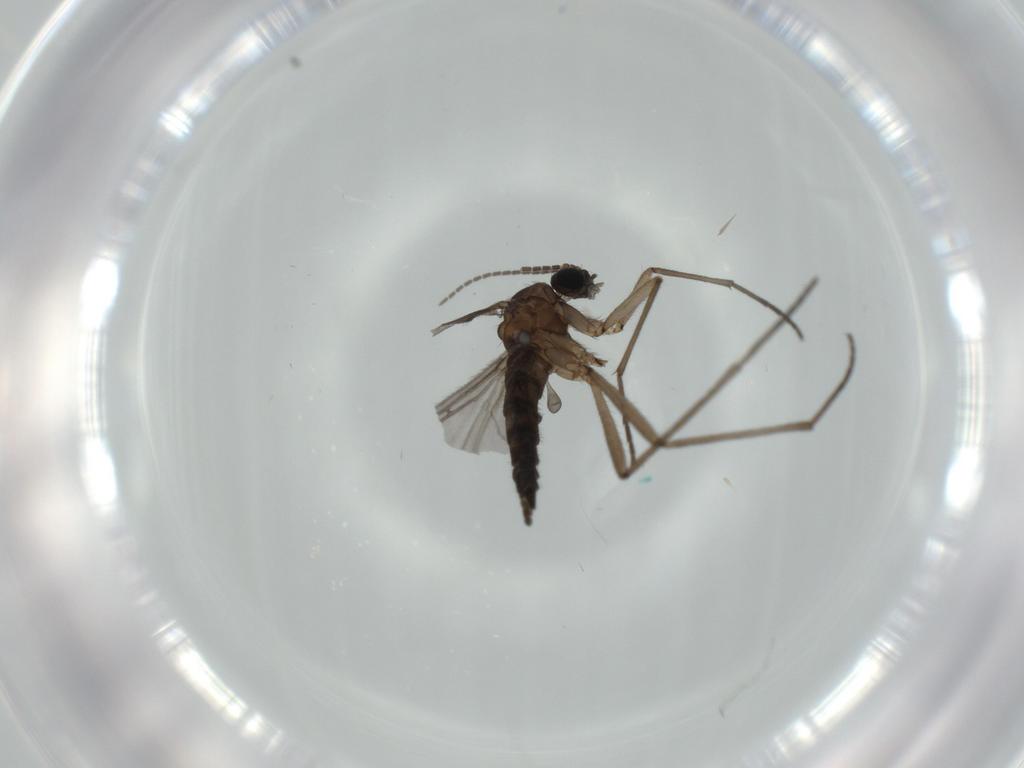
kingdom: Animalia
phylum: Arthropoda
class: Insecta
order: Diptera
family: Sciaridae
